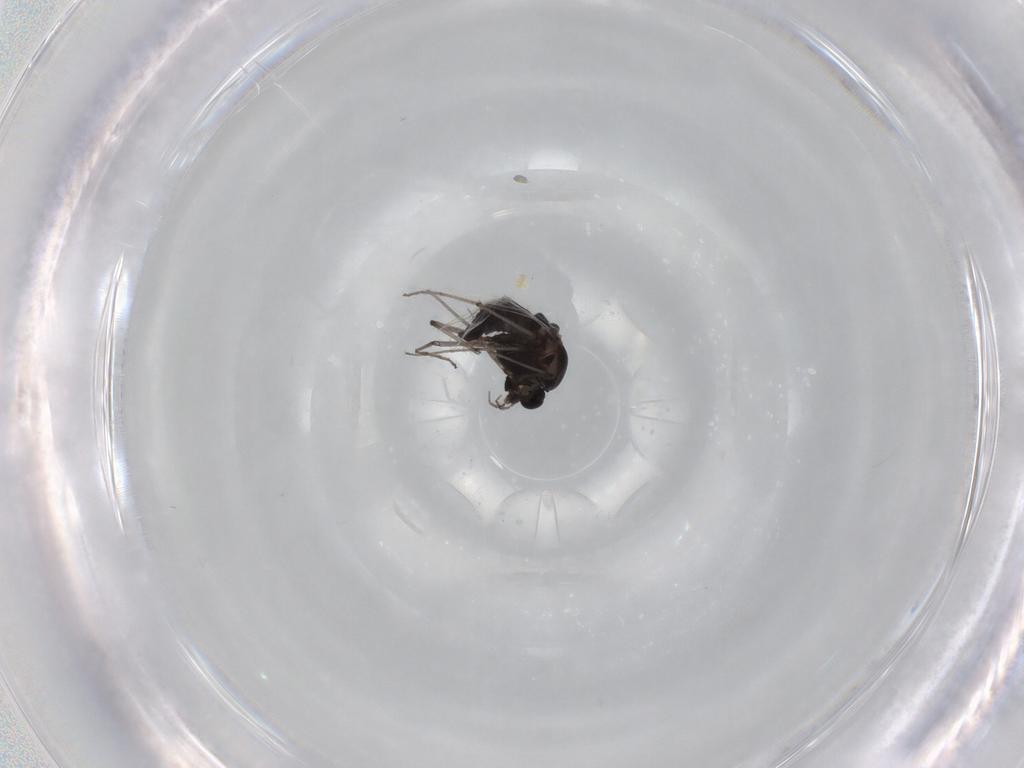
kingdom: Animalia
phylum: Arthropoda
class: Insecta
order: Diptera
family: Chironomidae
